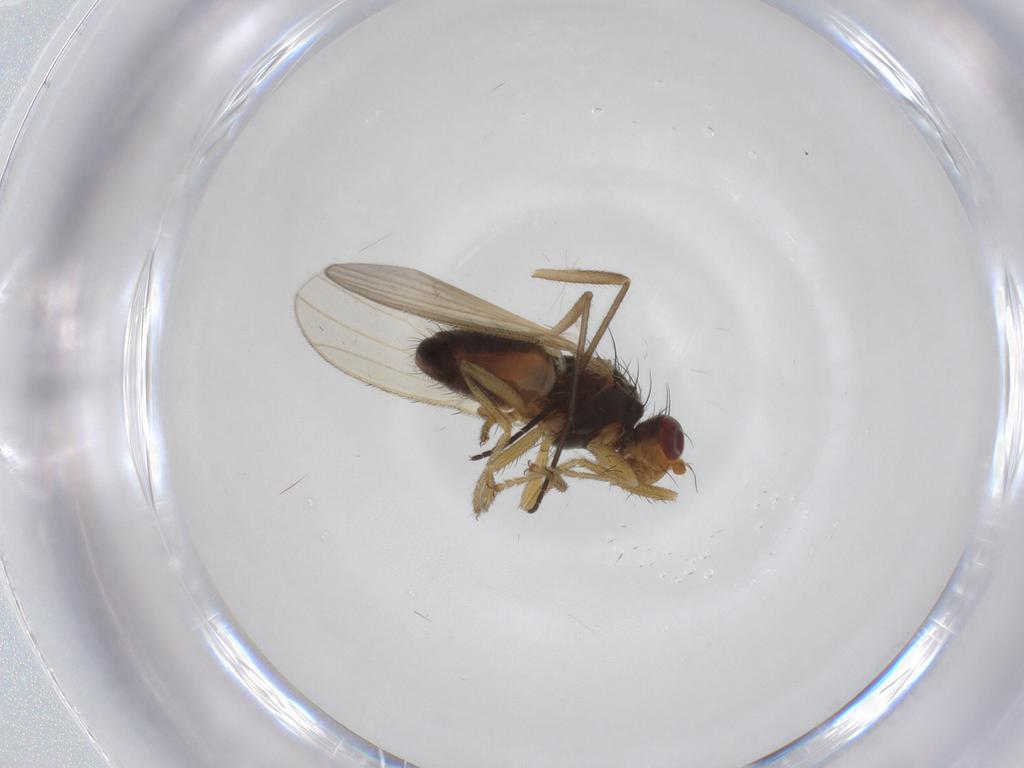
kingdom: Animalia
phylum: Arthropoda
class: Insecta
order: Diptera
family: Heleomyzidae
